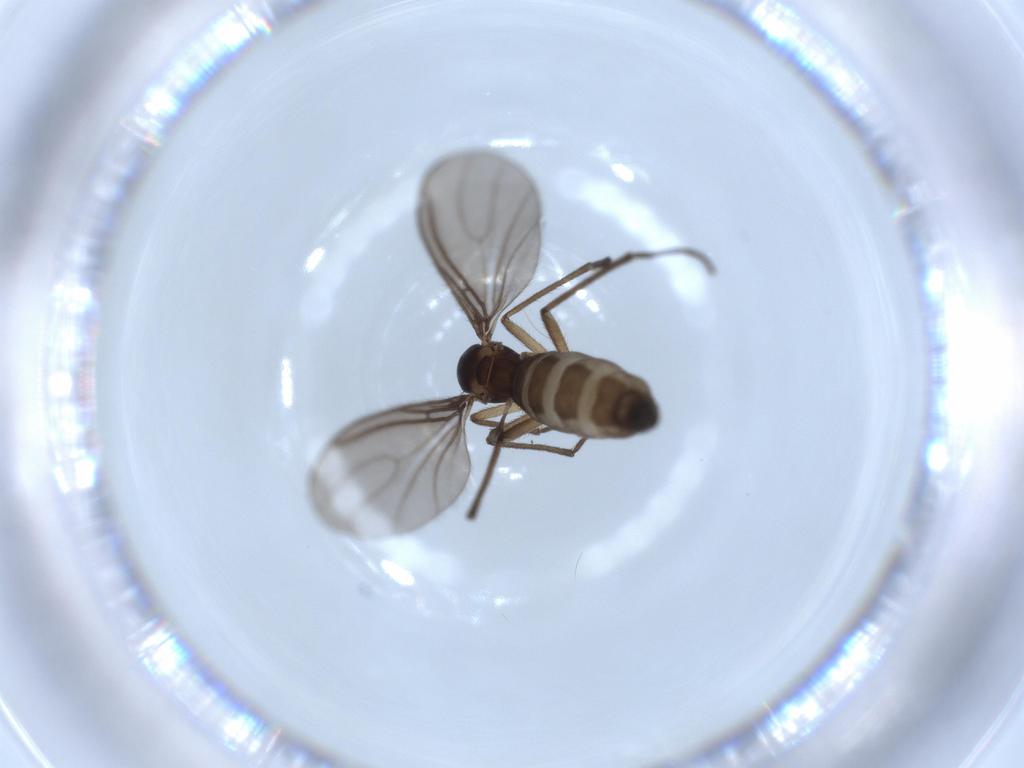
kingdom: Animalia
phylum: Arthropoda
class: Insecta
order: Diptera
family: Sciaridae
